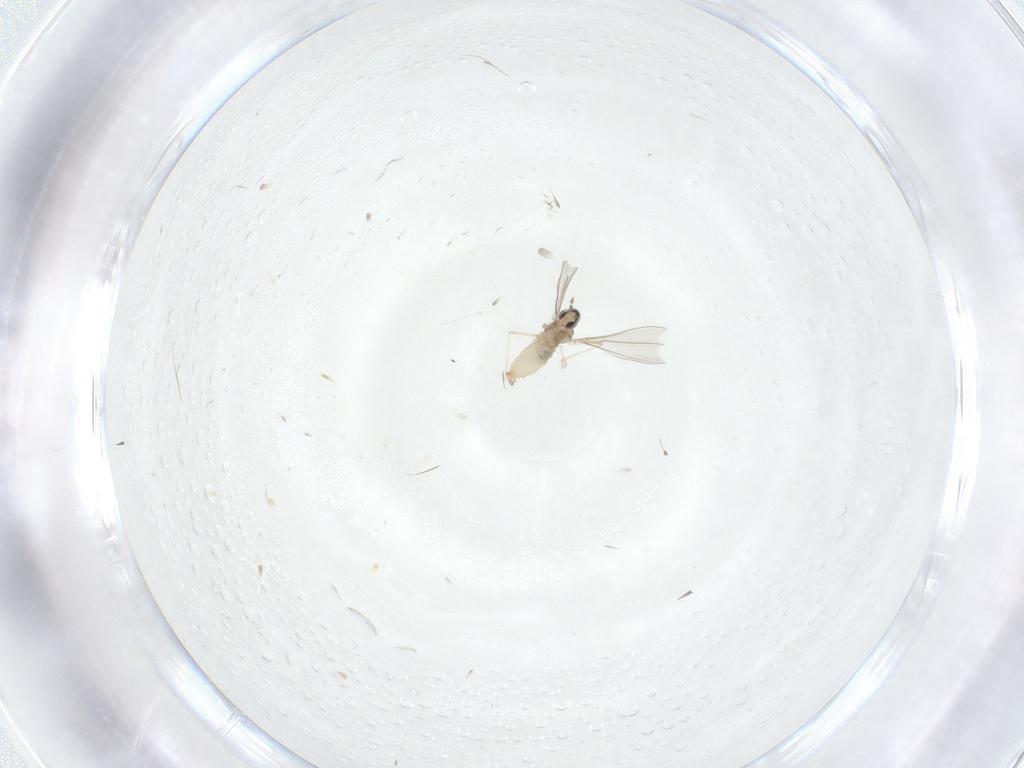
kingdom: Animalia
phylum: Arthropoda
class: Insecta
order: Diptera
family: Cecidomyiidae
